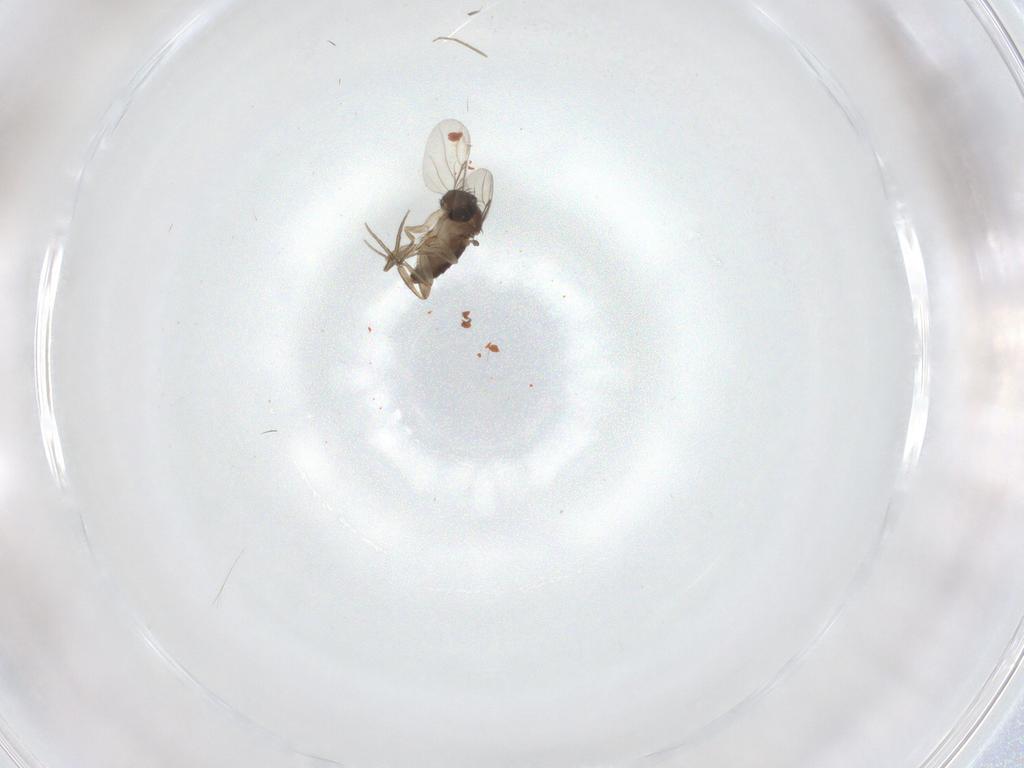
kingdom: Animalia
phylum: Arthropoda
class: Insecta
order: Diptera
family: Phoridae
